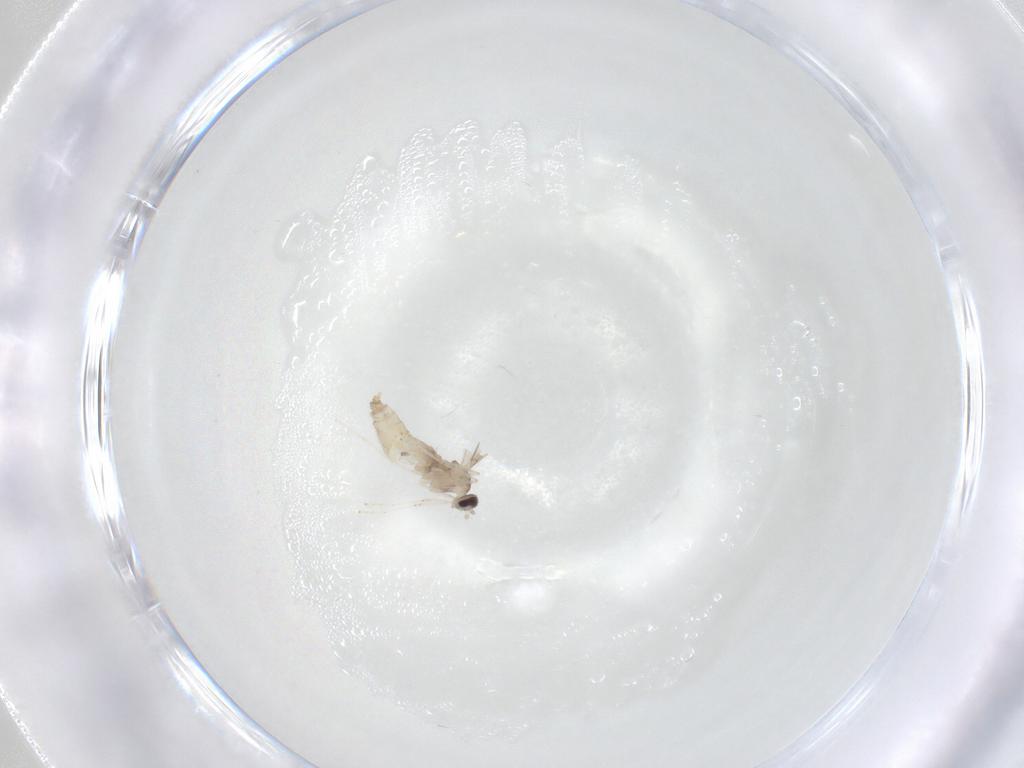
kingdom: Animalia
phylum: Arthropoda
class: Insecta
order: Diptera
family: Cecidomyiidae
